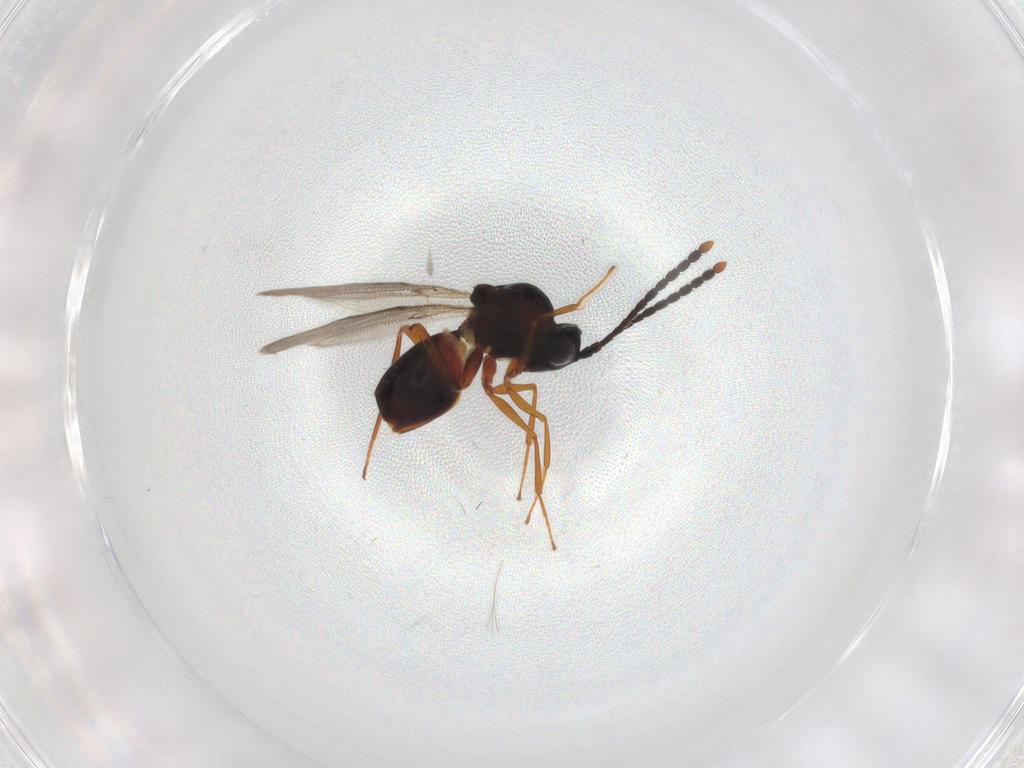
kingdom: Animalia
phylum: Arthropoda
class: Insecta
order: Hymenoptera
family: Figitidae
